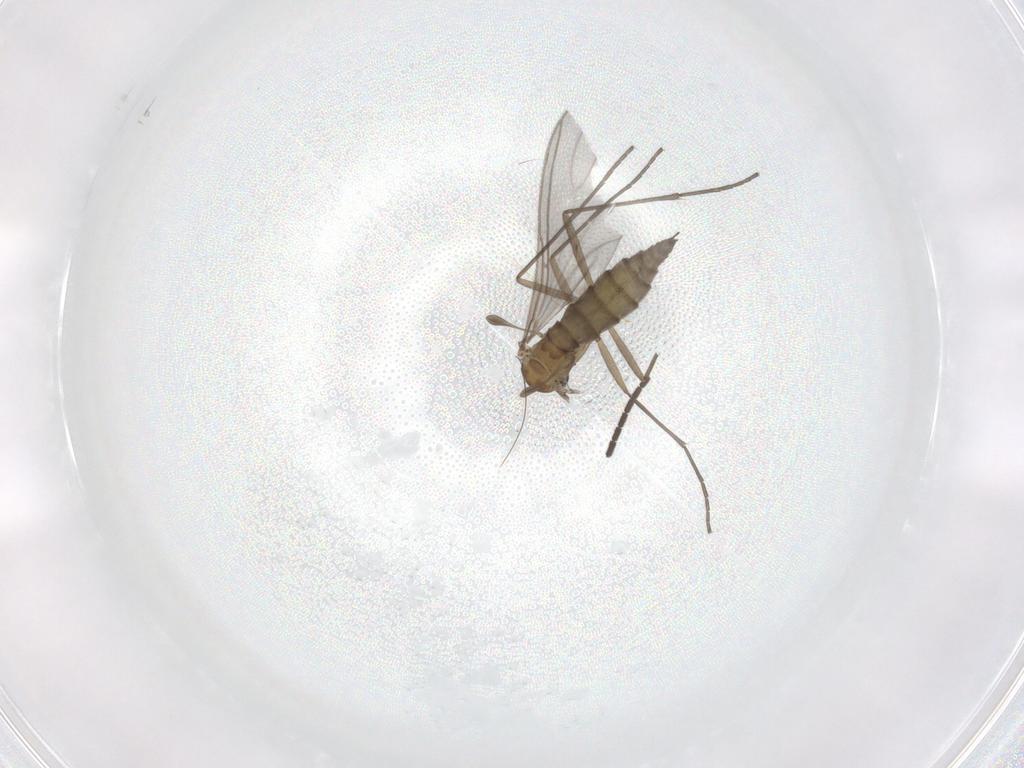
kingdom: Animalia
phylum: Arthropoda
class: Insecta
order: Diptera
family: Sciaridae
